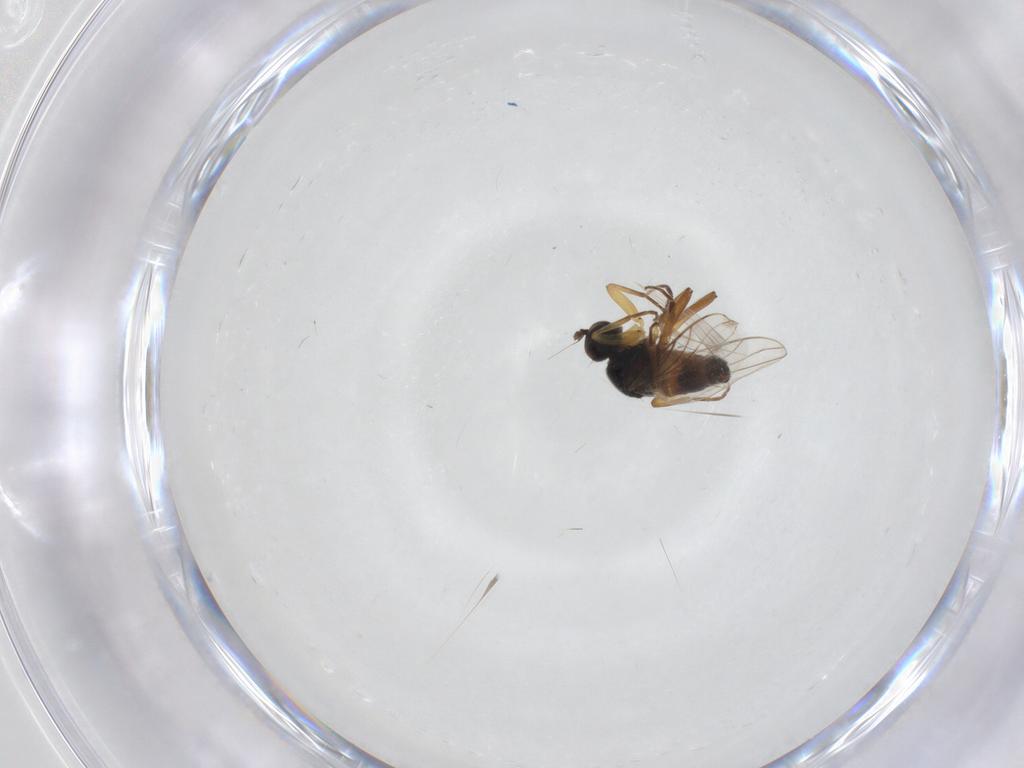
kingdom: Animalia
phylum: Arthropoda
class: Insecta
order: Diptera
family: Hybotidae
